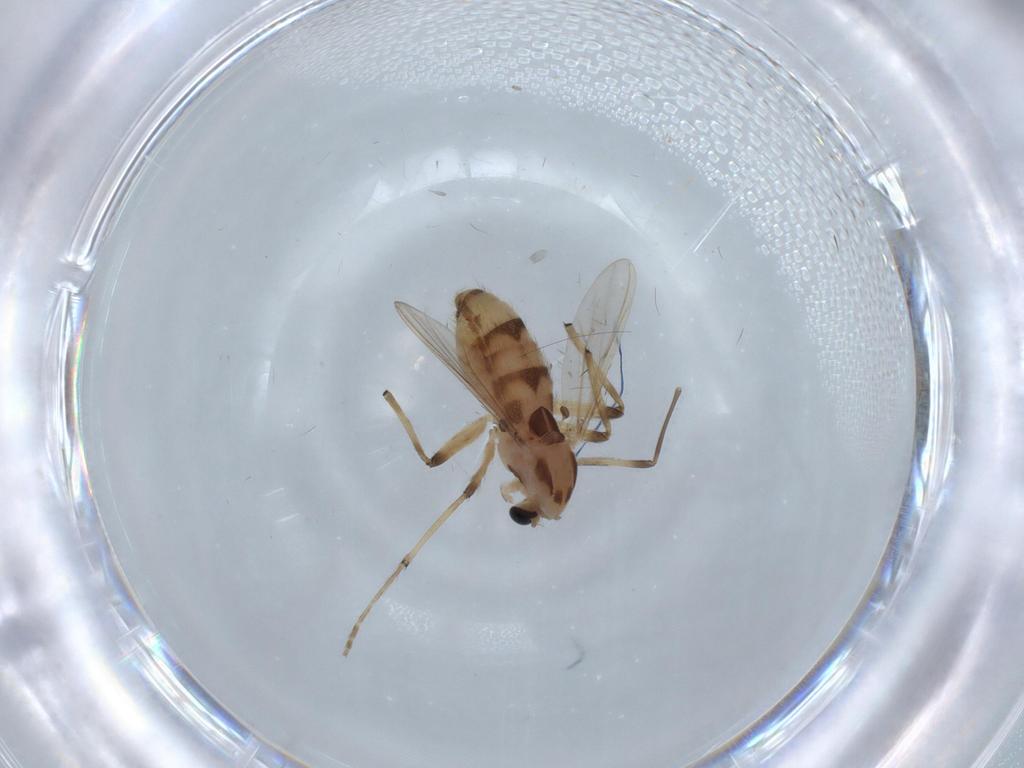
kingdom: Animalia
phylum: Arthropoda
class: Insecta
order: Diptera
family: Chironomidae
